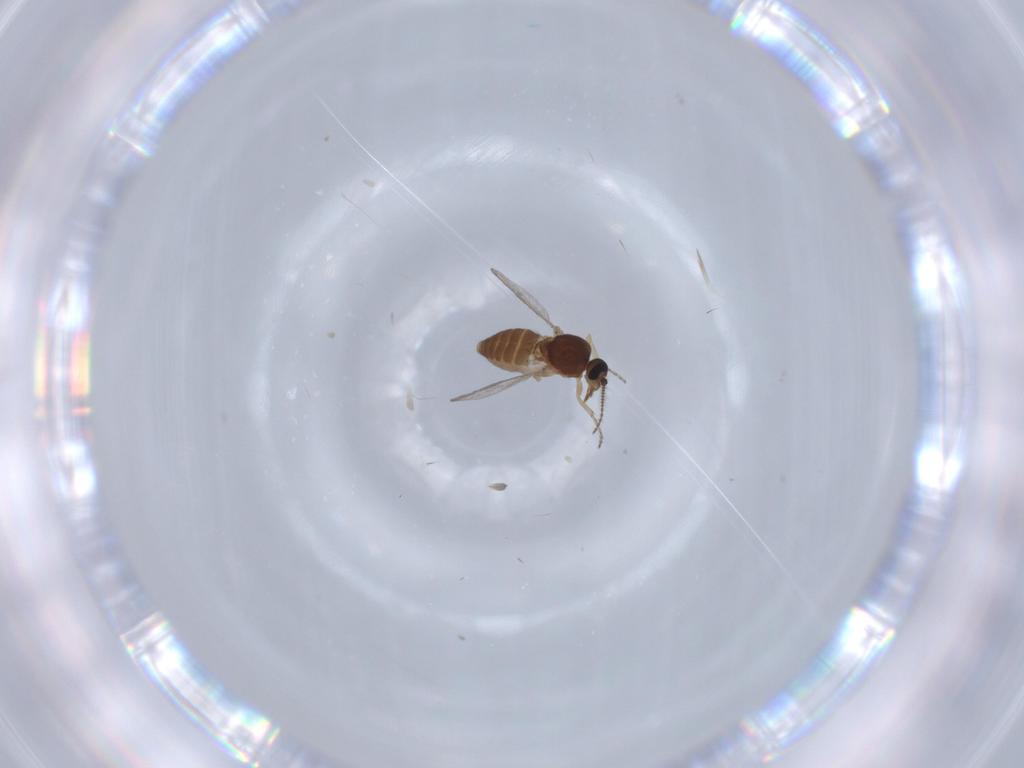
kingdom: Animalia
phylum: Arthropoda
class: Insecta
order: Diptera
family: Ceratopogonidae
